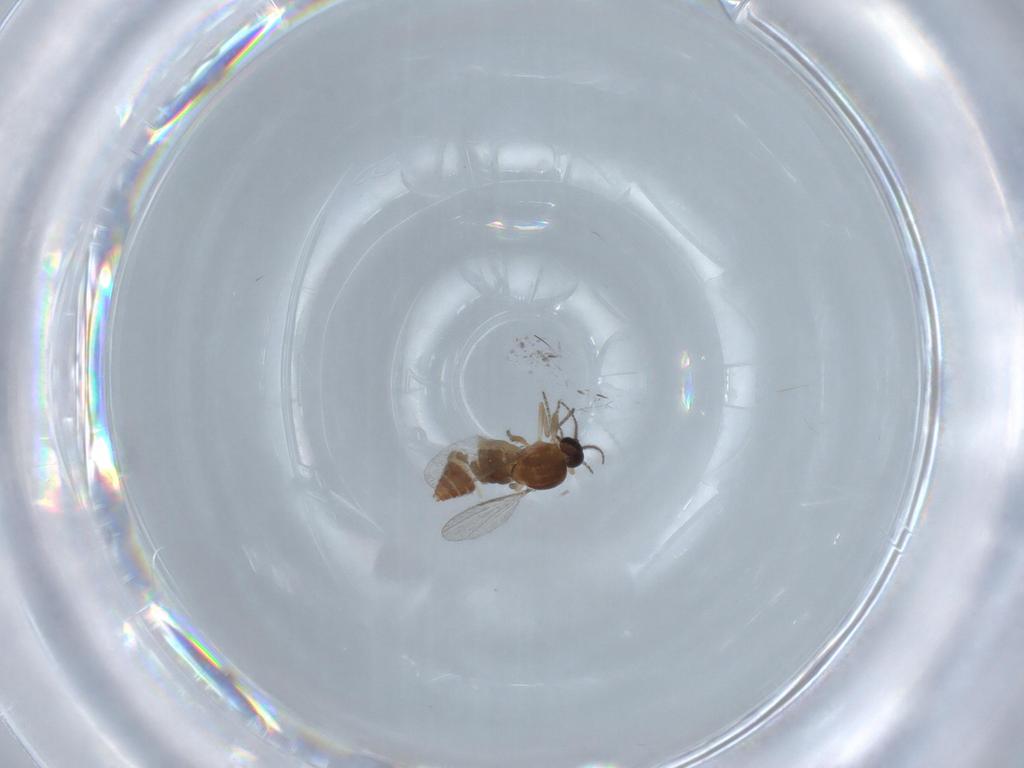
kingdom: Animalia
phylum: Arthropoda
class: Insecta
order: Diptera
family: Ceratopogonidae
